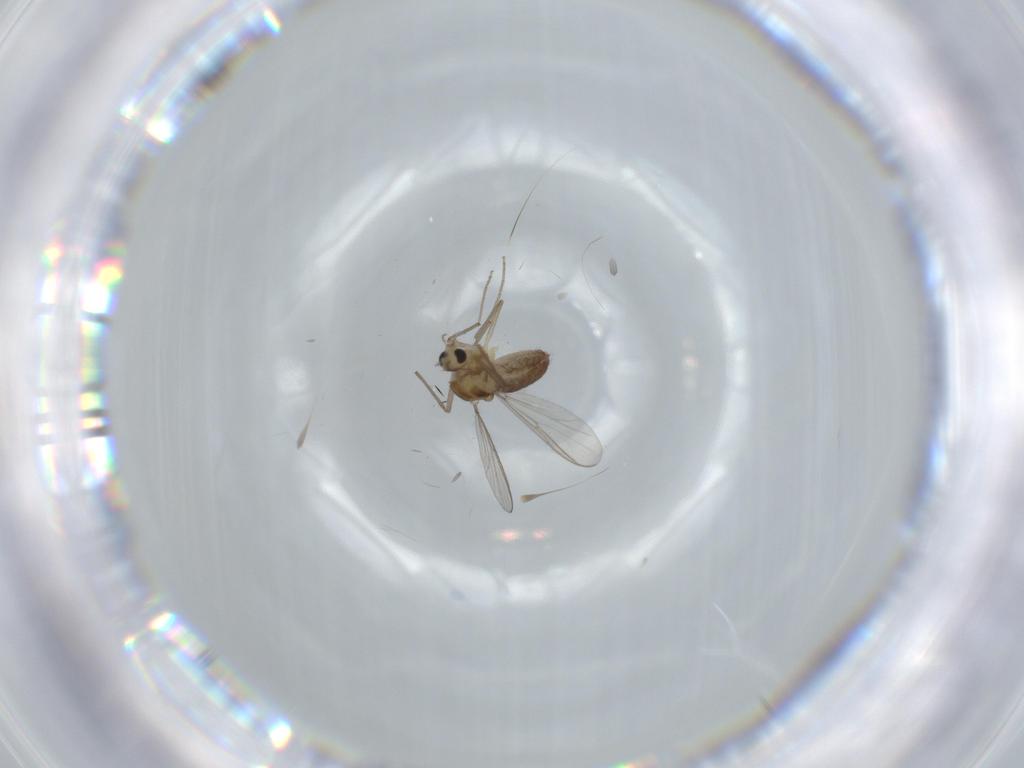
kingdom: Animalia
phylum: Arthropoda
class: Insecta
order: Diptera
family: Chironomidae
